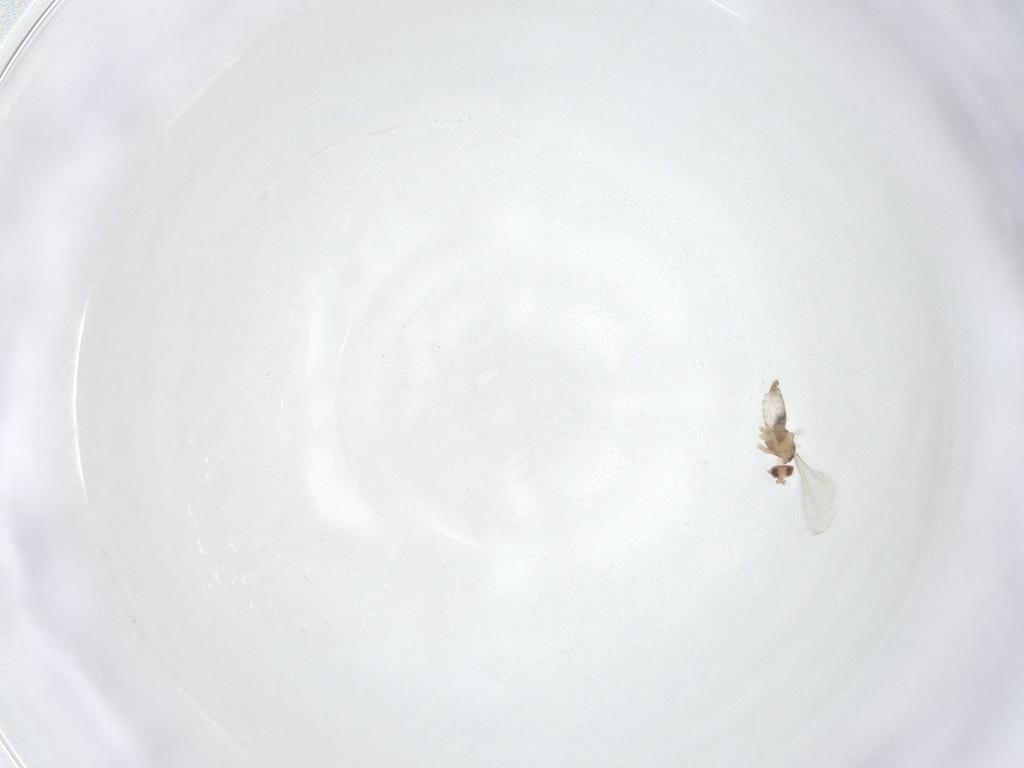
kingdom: Animalia
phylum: Arthropoda
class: Insecta
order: Diptera
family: Cecidomyiidae
